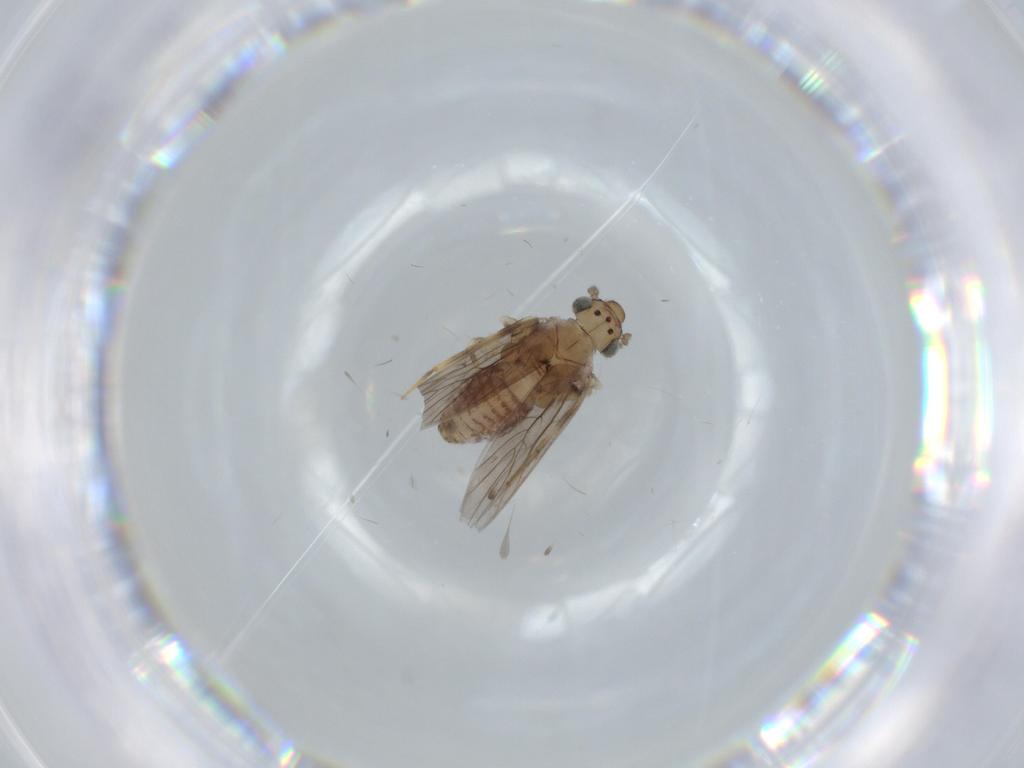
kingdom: Animalia
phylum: Arthropoda
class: Insecta
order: Psocodea
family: Lepidopsocidae
